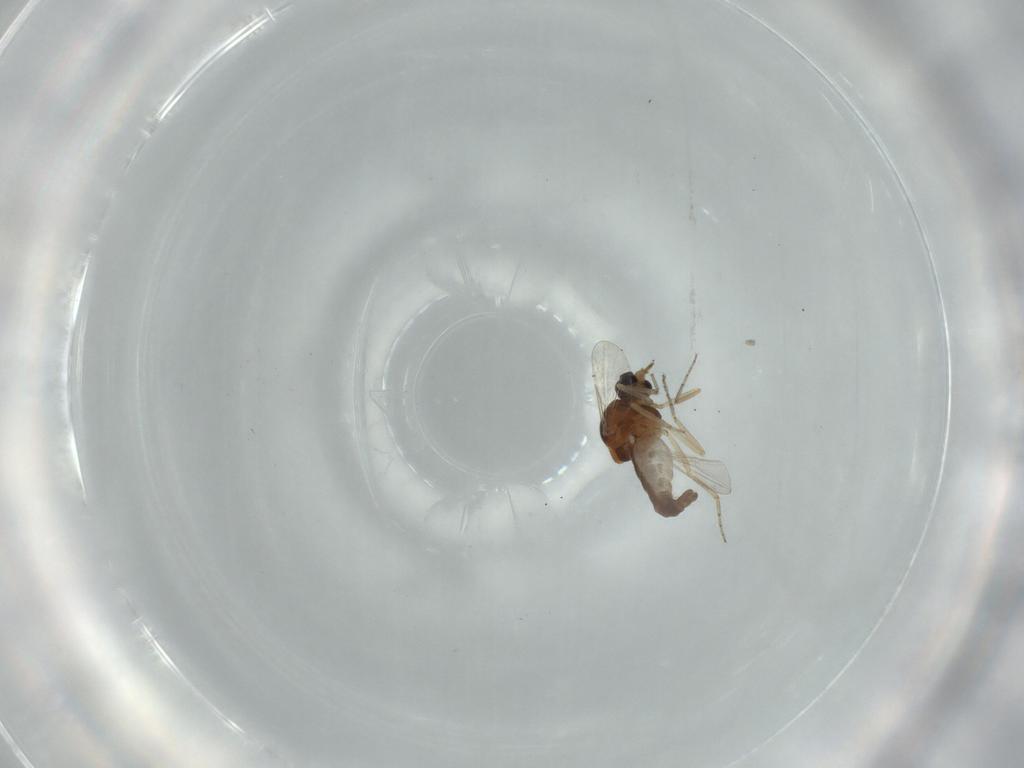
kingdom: Animalia
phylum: Arthropoda
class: Insecta
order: Diptera
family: Ceratopogonidae
